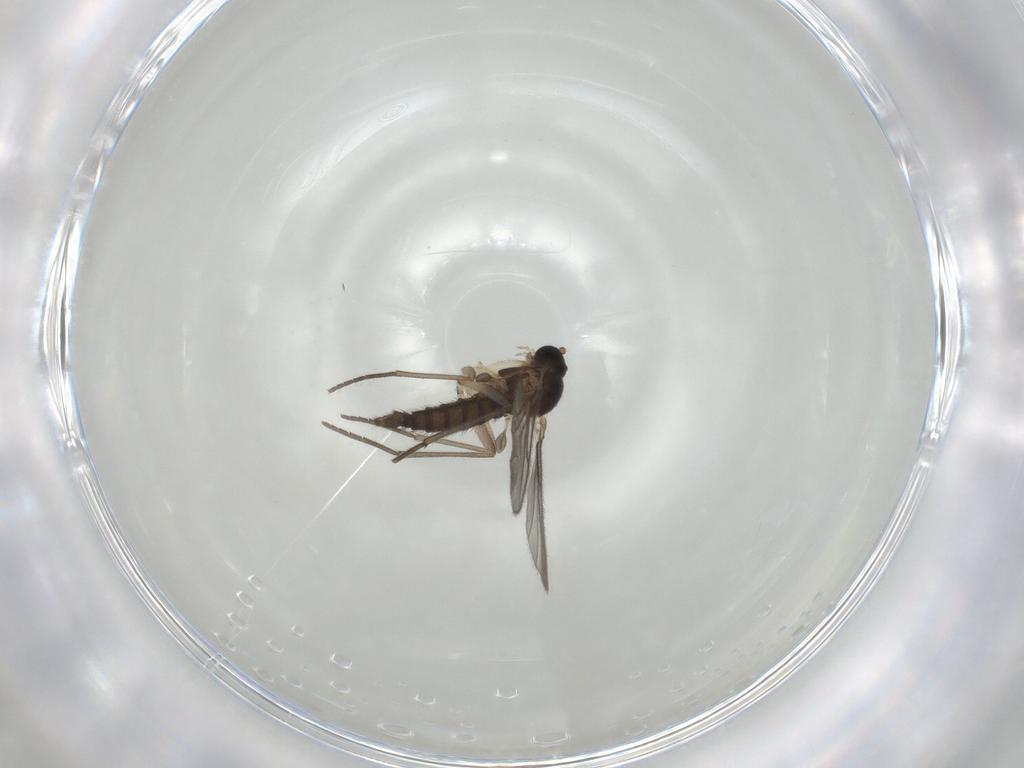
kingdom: Animalia
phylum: Arthropoda
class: Insecta
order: Diptera
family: Sciaridae
